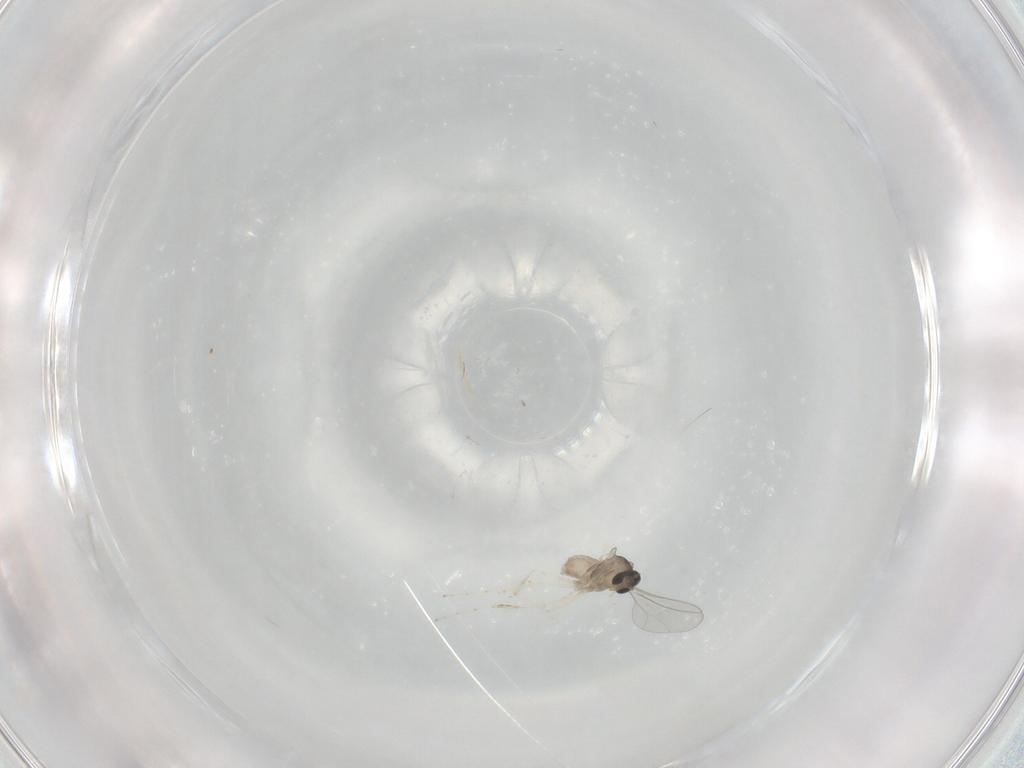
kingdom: Animalia
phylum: Arthropoda
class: Insecta
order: Diptera
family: Cecidomyiidae
